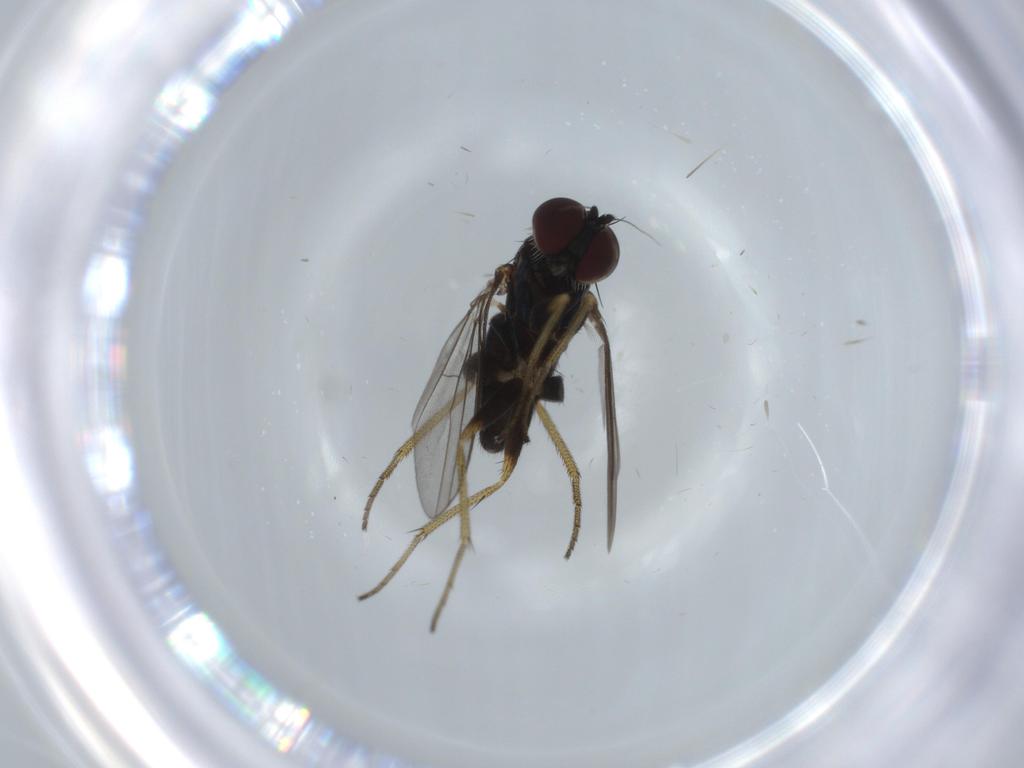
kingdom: Animalia
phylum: Arthropoda
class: Insecta
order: Diptera
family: Dolichopodidae
